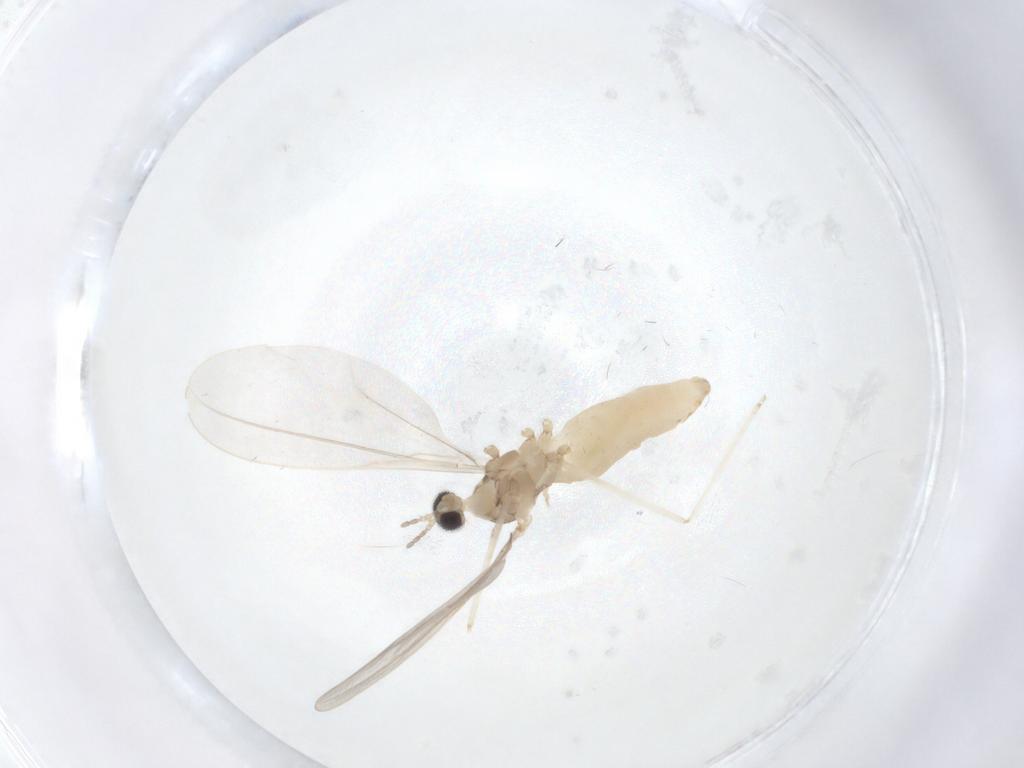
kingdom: Animalia
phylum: Arthropoda
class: Insecta
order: Diptera
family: Cecidomyiidae
